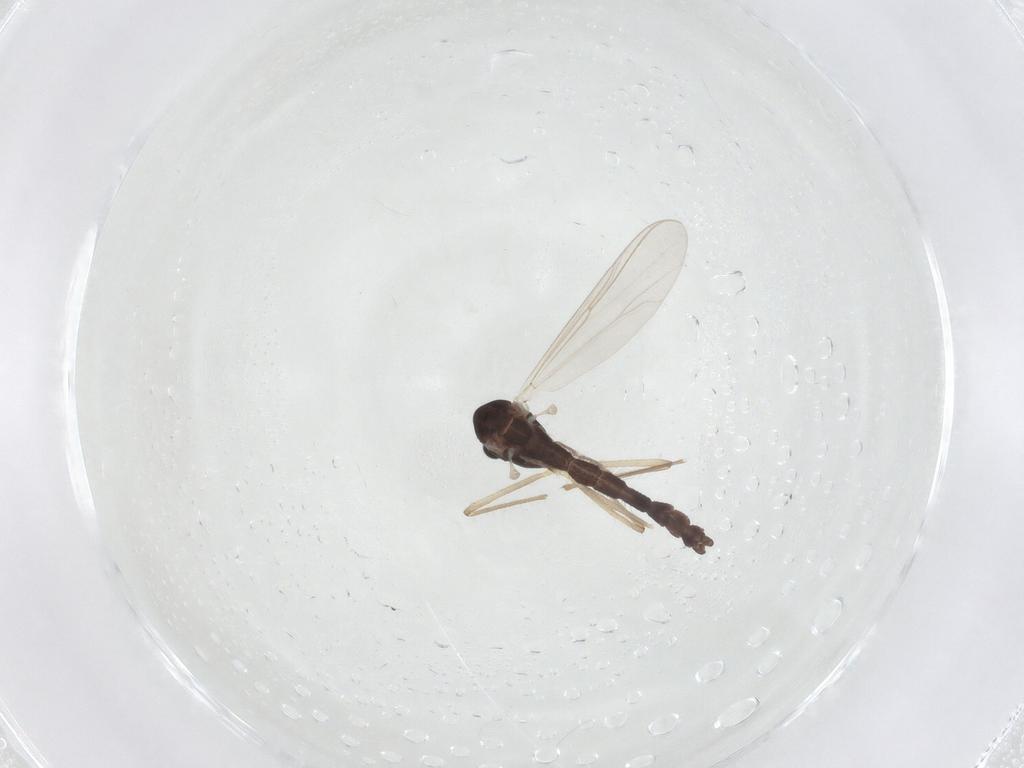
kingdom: Animalia
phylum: Arthropoda
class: Insecta
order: Diptera
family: Chironomidae
